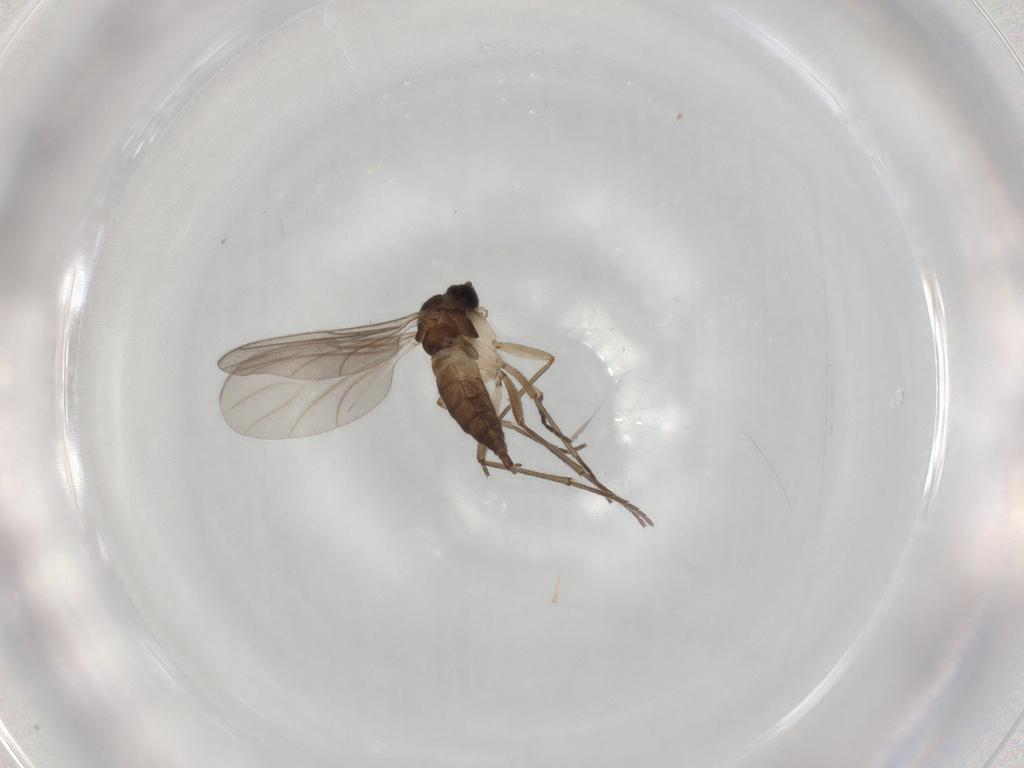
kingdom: Animalia
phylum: Arthropoda
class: Insecta
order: Diptera
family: Sciaridae
